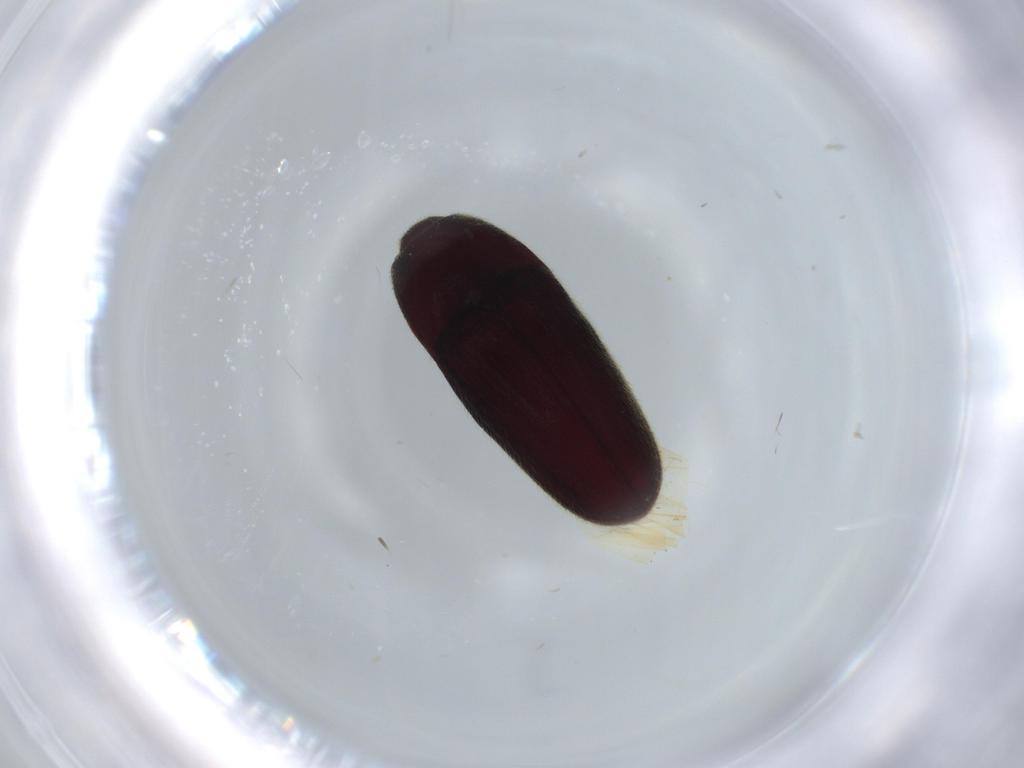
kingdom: Animalia
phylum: Arthropoda
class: Insecta
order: Coleoptera
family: Throscidae
